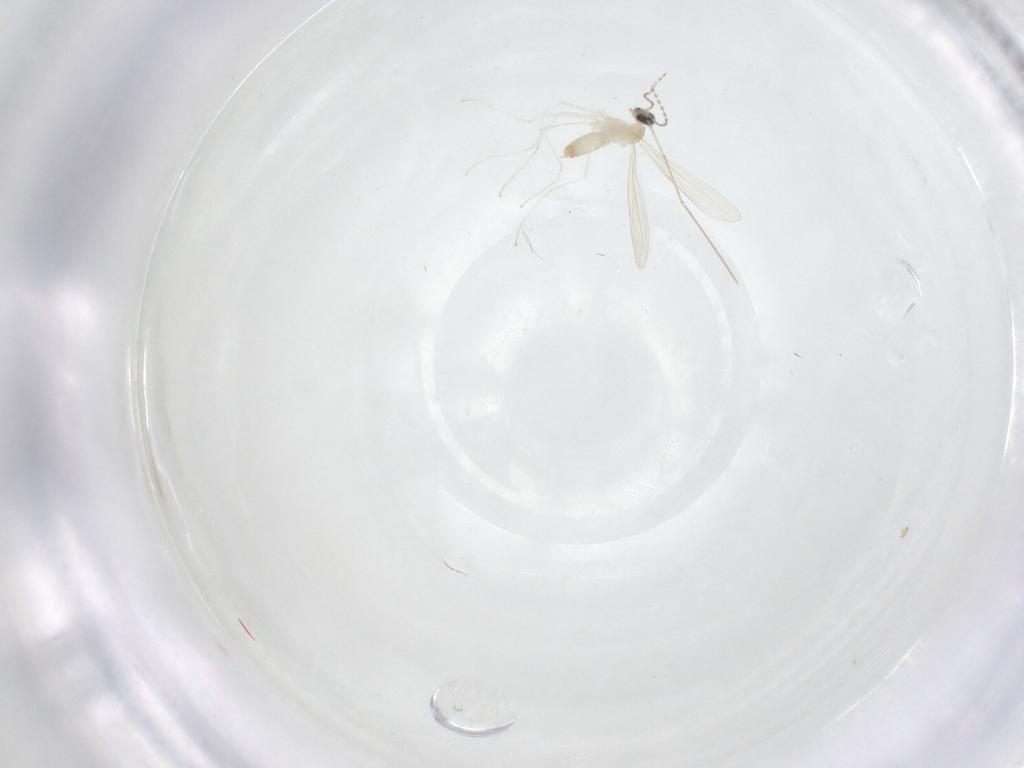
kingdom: Animalia
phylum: Arthropoda
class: Insecta
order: Diptera
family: Cecidomyiidae
